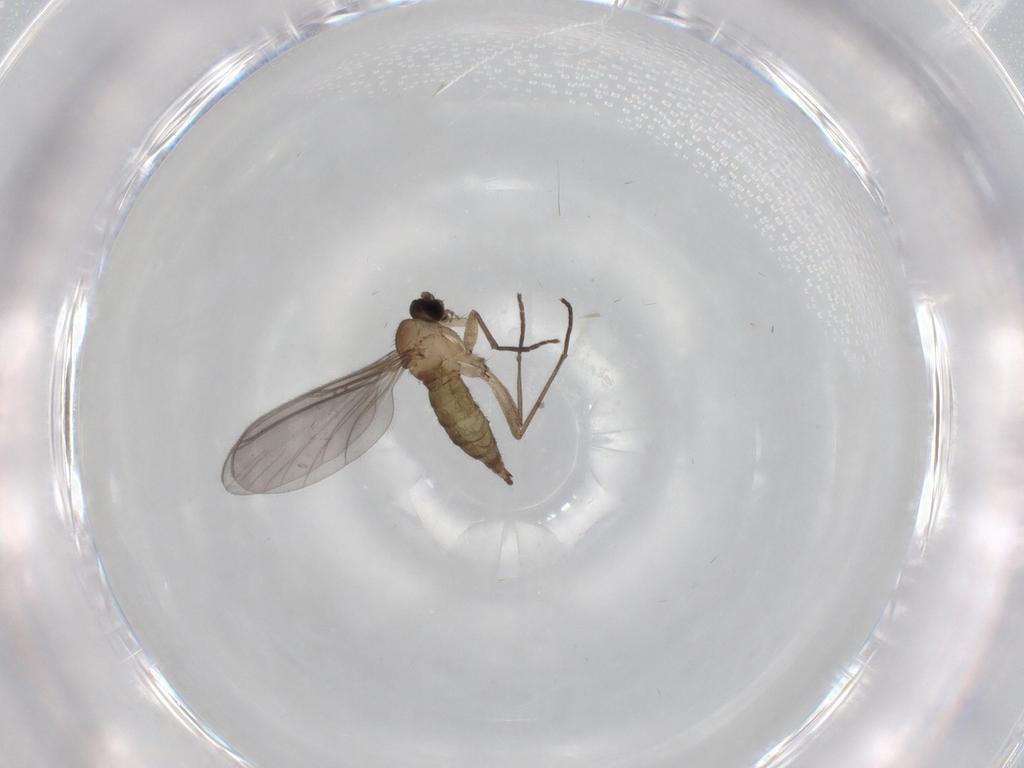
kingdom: Animalia
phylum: Arthropoda
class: Insecta
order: Diptera
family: Sciaridae
